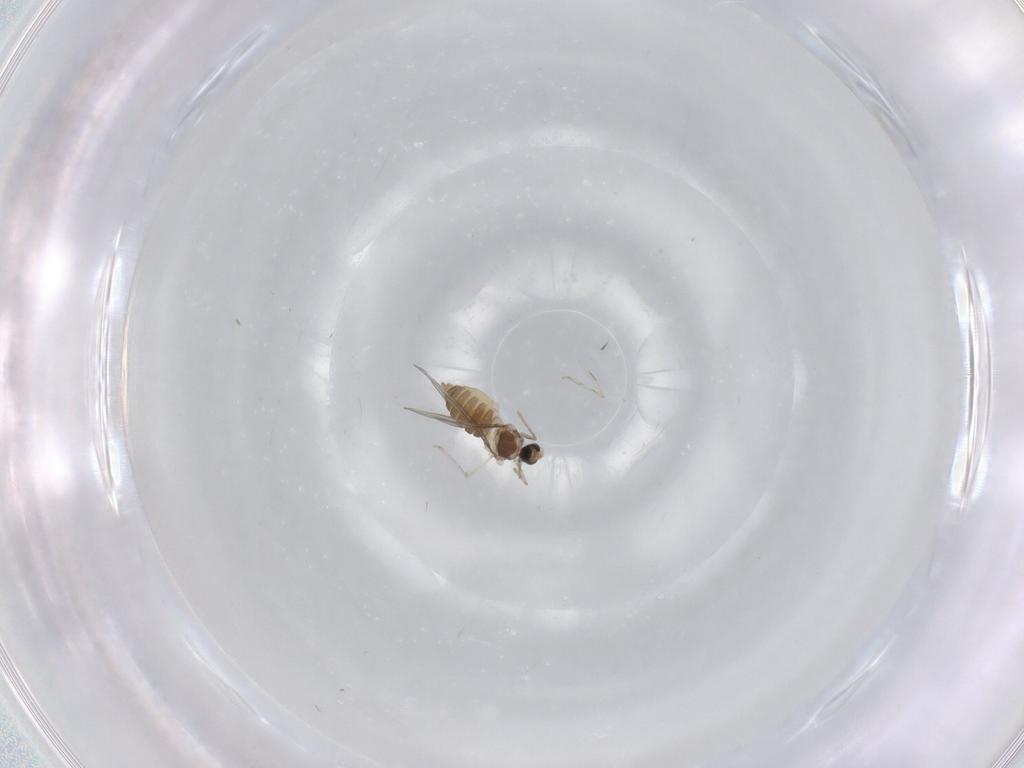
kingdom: Animalia
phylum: Arthropoda
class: Insecta
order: Diptera
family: Cecidomyiidae
